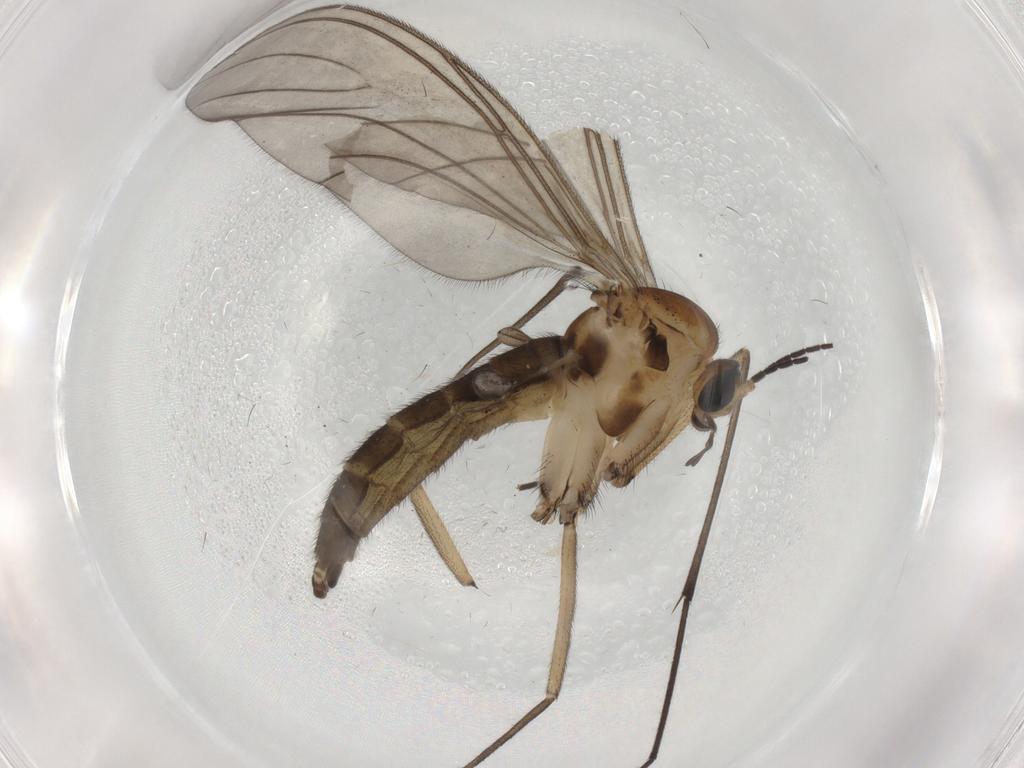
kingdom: Animalia
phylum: Arthropoda
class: Insecta
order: Diptera
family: Sciaridae
